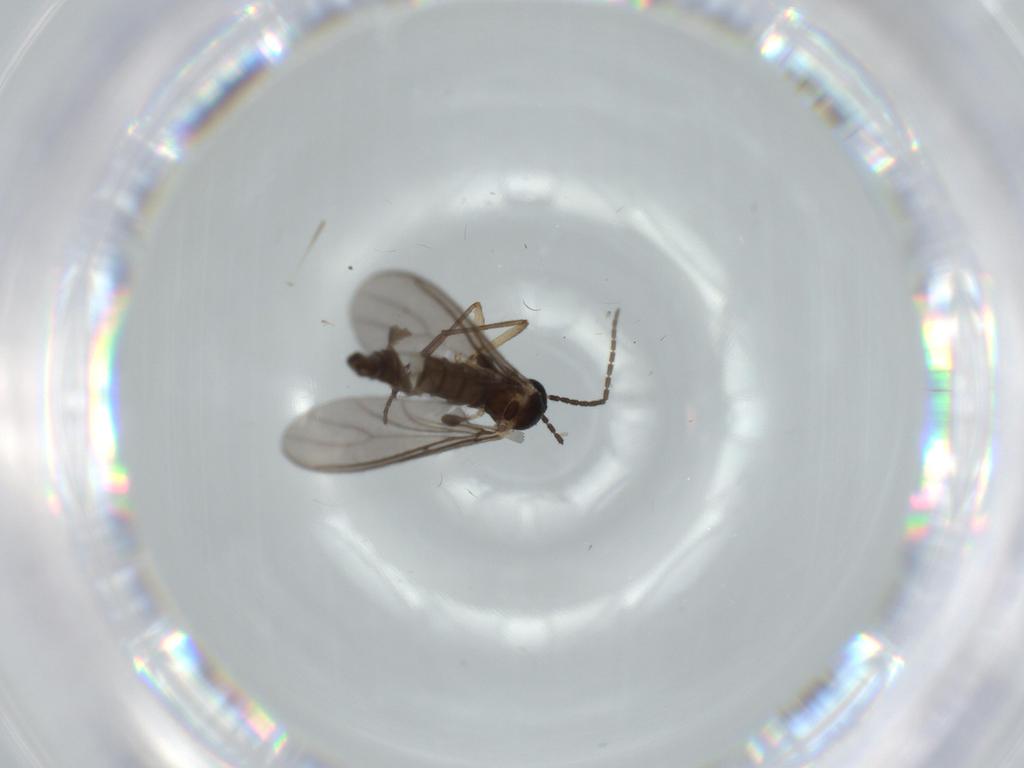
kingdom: Animalia
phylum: Arthropoda
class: Insecta
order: Diptera
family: Sciaridae
